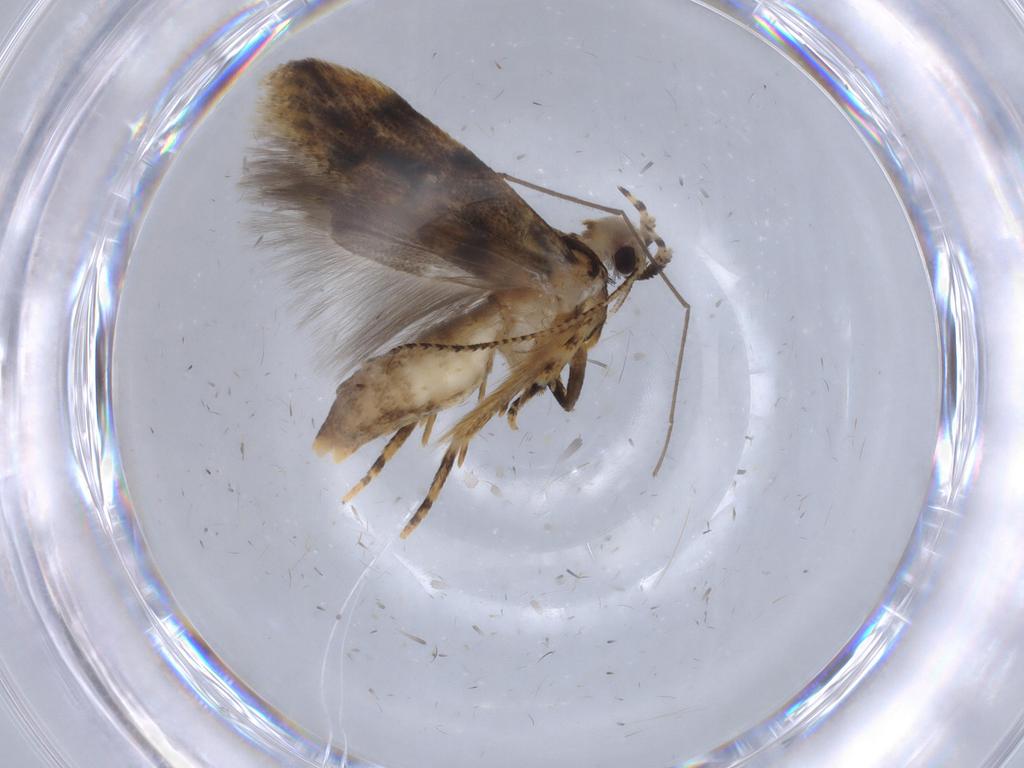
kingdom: Animalia
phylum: Arthropoda
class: Insecta
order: Lepidoptera
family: Gelechiidae
